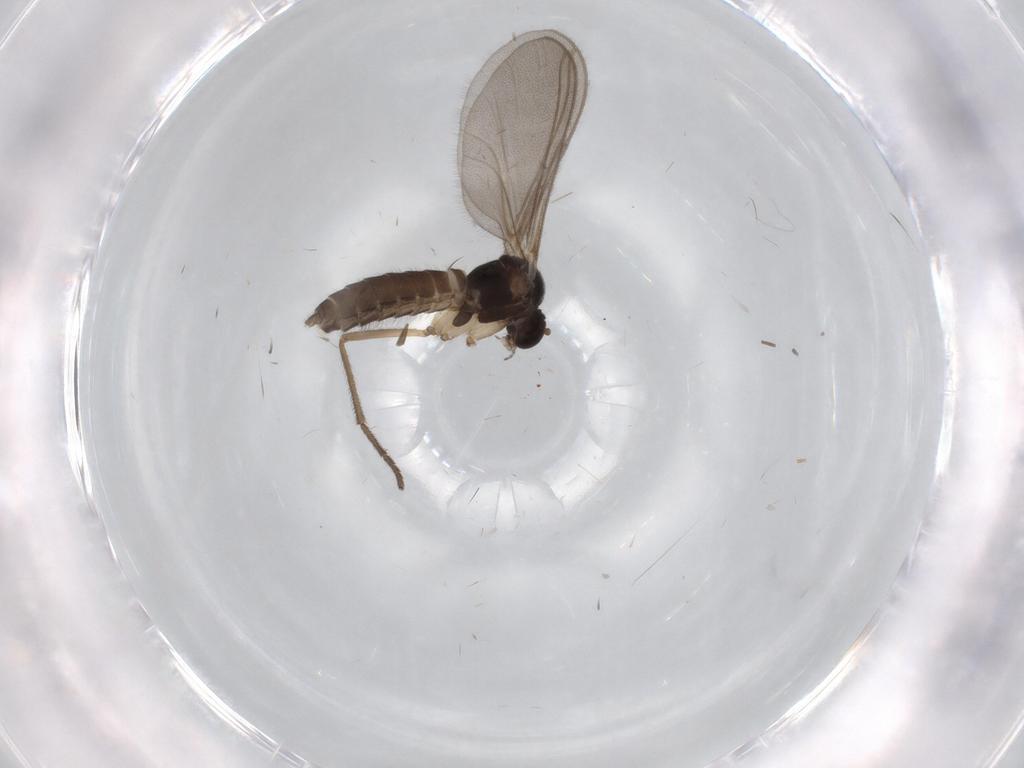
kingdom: Animalia
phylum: Arthropoda
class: Insecta
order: Diptera
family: Mycetophilidae
